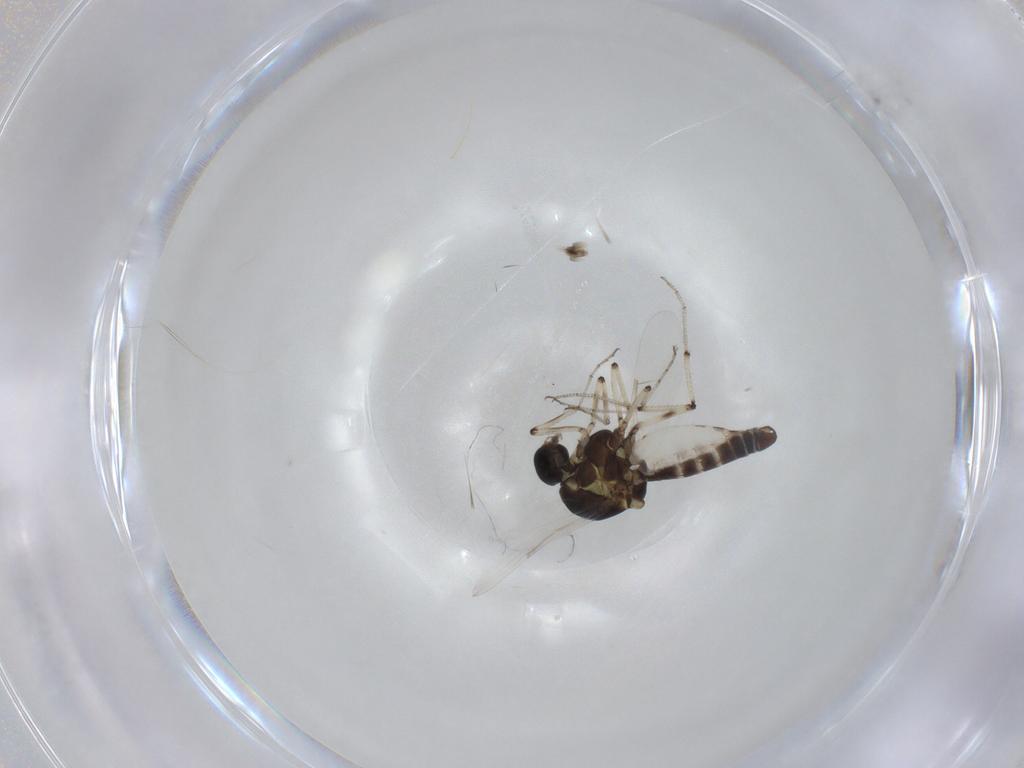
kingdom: Animalia
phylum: Arthropoda
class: Insecta
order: Diptera
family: Ceratopogonidae
